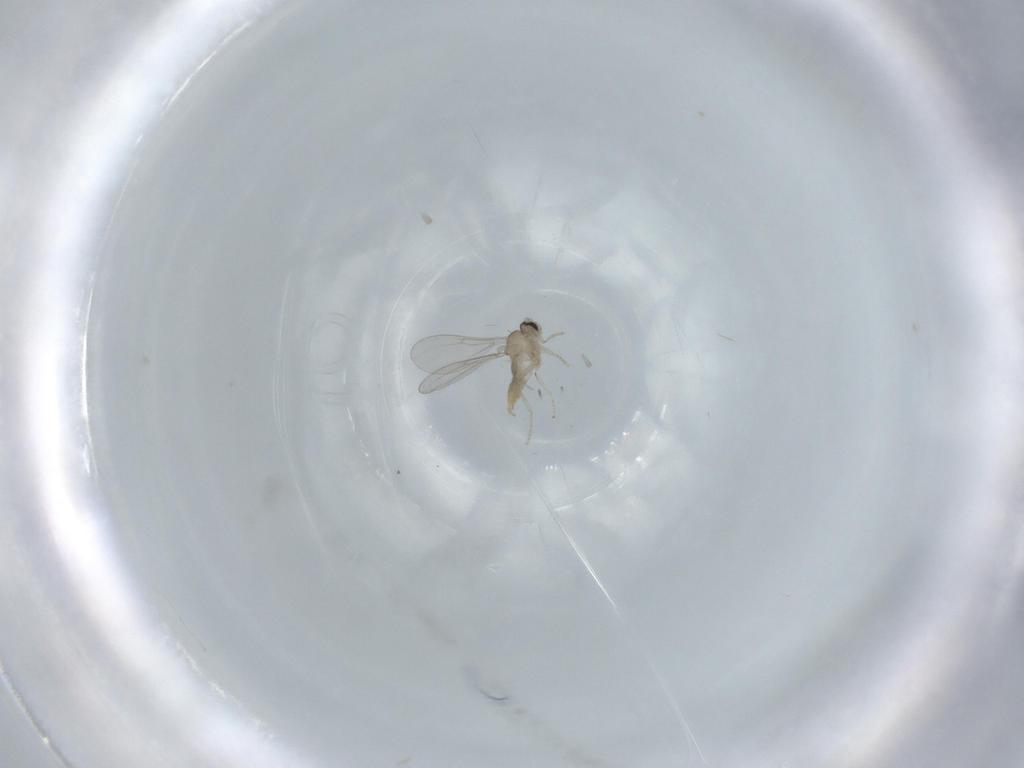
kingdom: Animalia
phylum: Arthropoda
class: Insecta
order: Diptera
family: Cecidomyiidae
